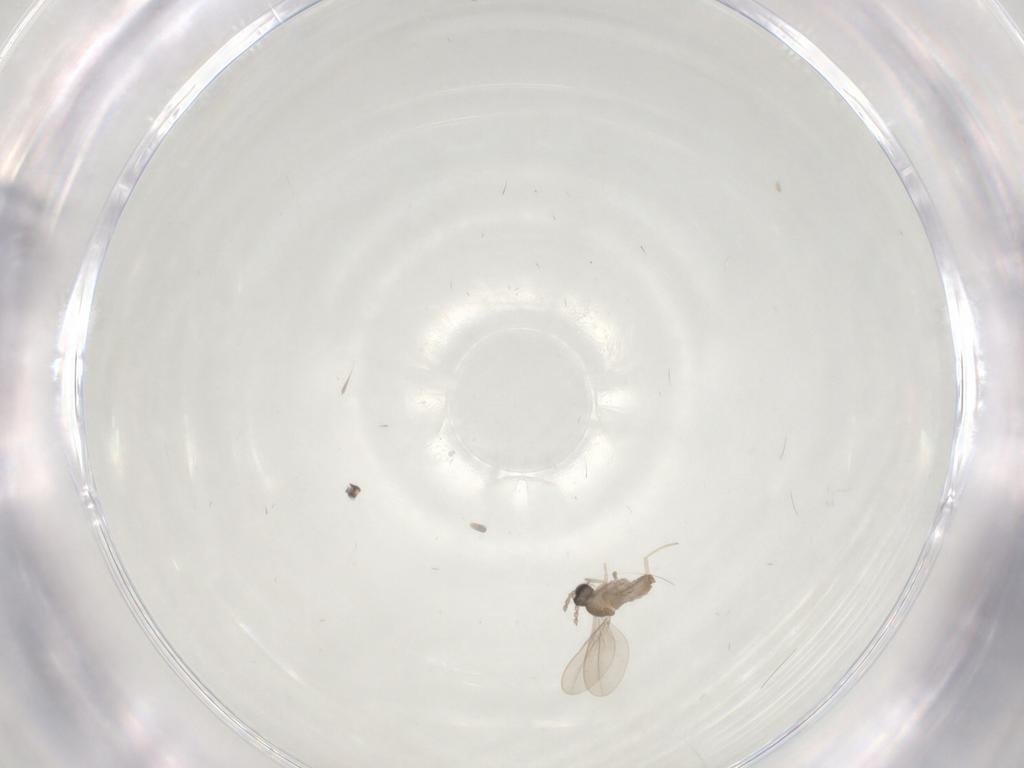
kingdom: Animalia
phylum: Arthropoda
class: Insecta
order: Diptera
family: Sciaridae
